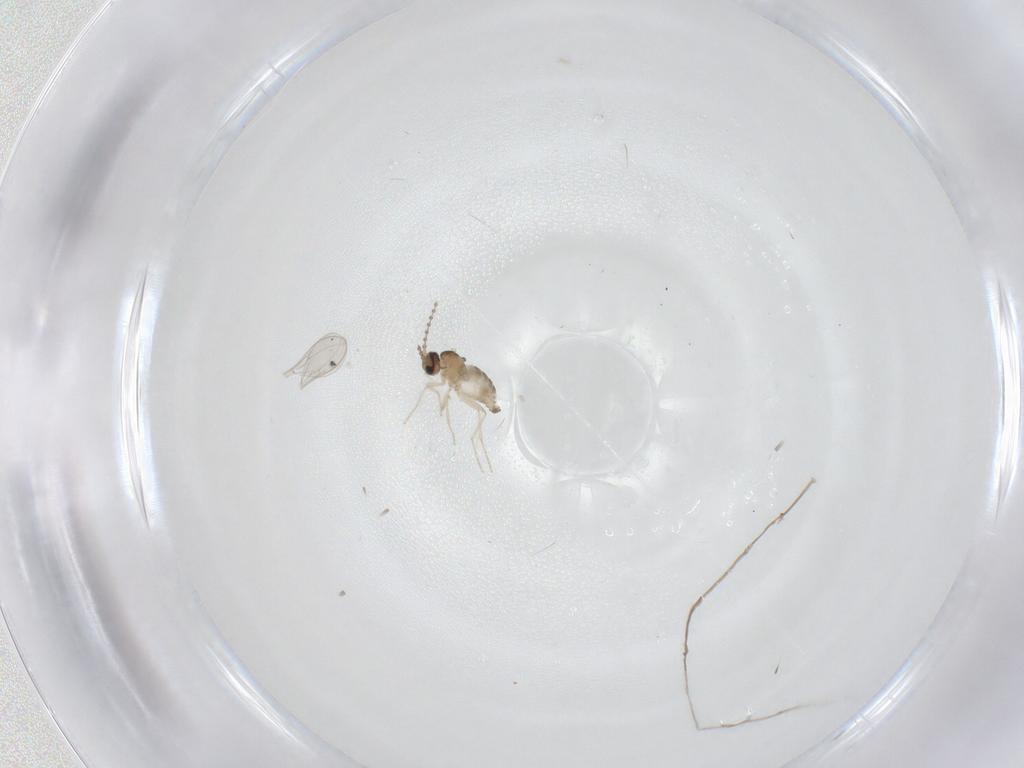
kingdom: Animalia
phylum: Arthropoda
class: Insecta
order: Diptera
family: Cecidomyiidae
